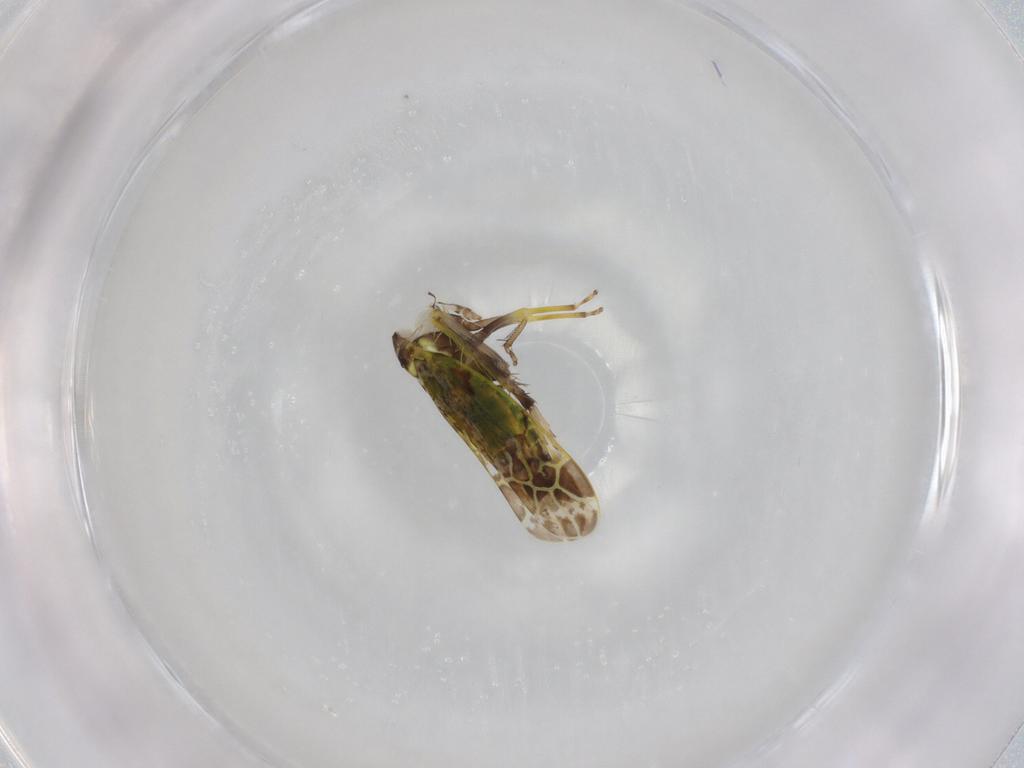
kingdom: Animalia
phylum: Arthropoda
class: Insecta
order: Hemiptera
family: Cicadellidae
